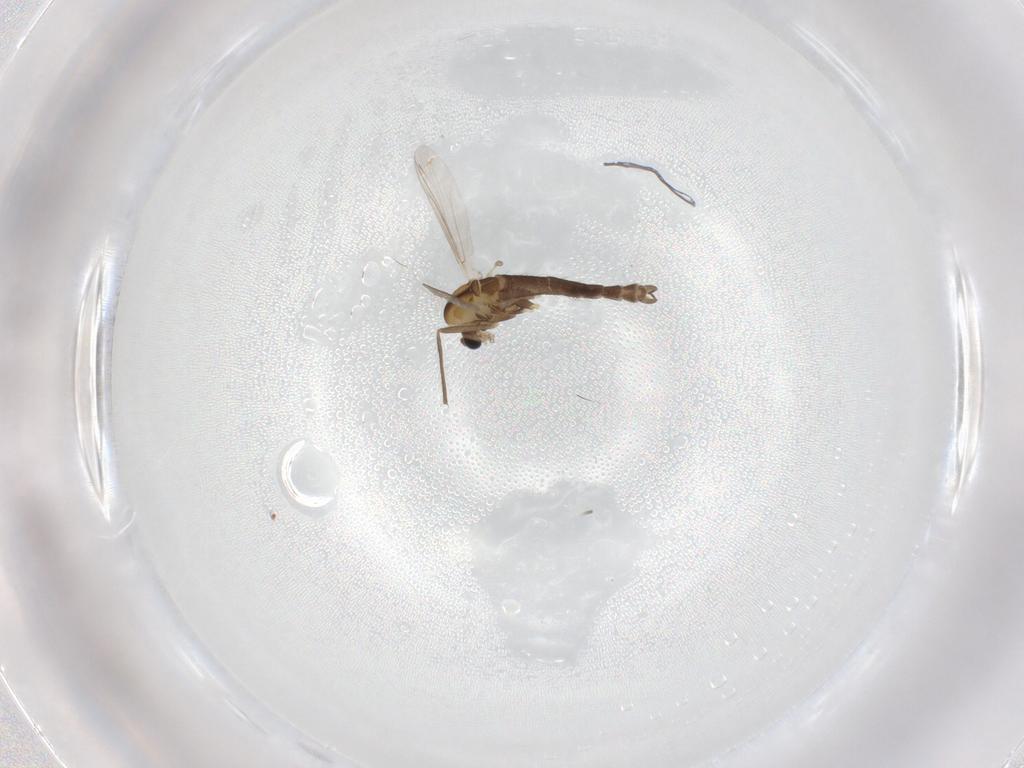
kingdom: Animalia
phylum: Arthropoda
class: Insecta
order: Diptera
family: Chironomidae
